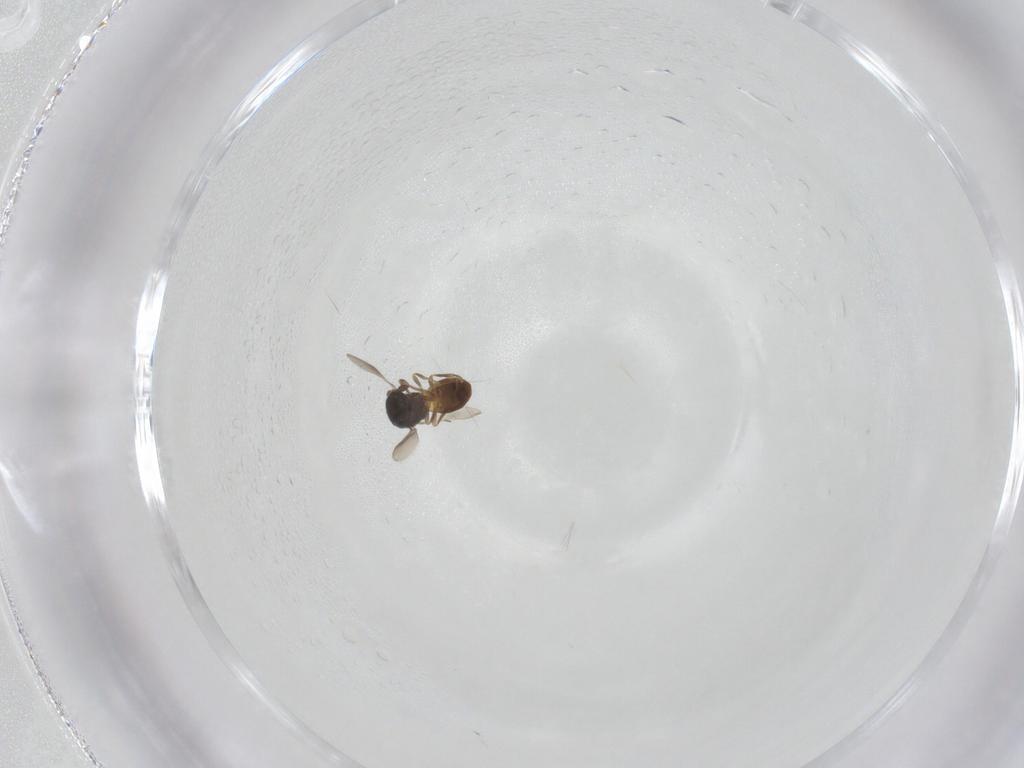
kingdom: Animalia
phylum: Arthropoda
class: Insecta
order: Hymenoptera
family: Scelionidae
